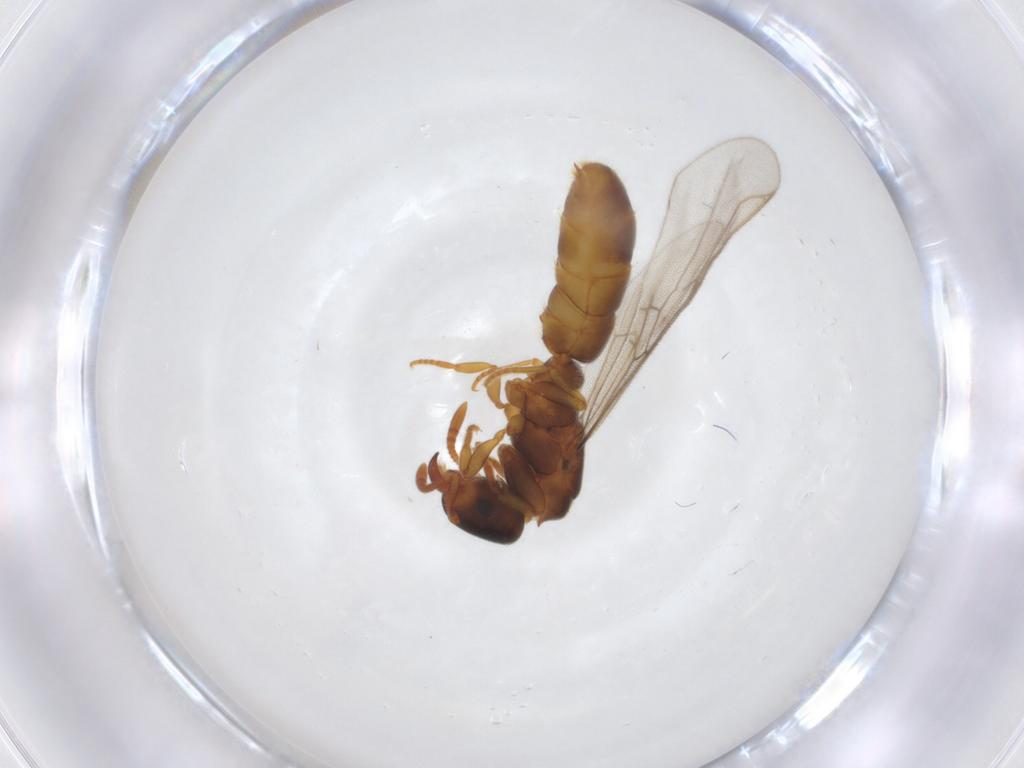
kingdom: Animalia
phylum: Arthropoda
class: Insecta
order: Hymenoptera
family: Formicidae
